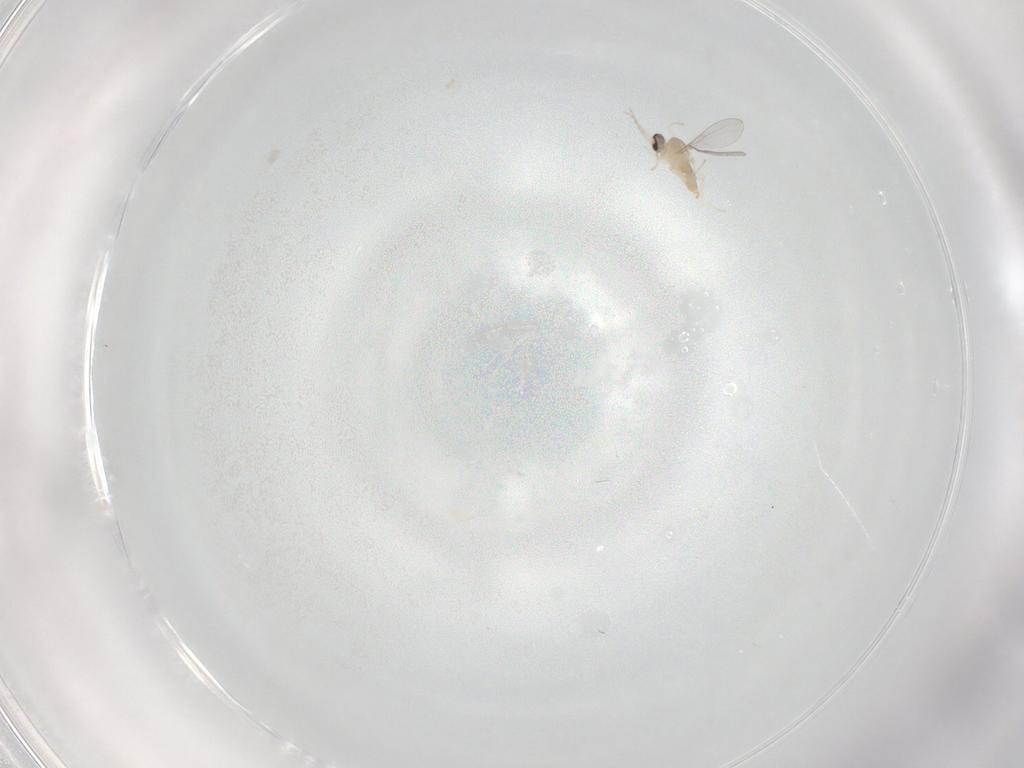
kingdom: Animalia
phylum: Arthropoda
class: Insecta
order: Diptera
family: Cecidomyiidae
